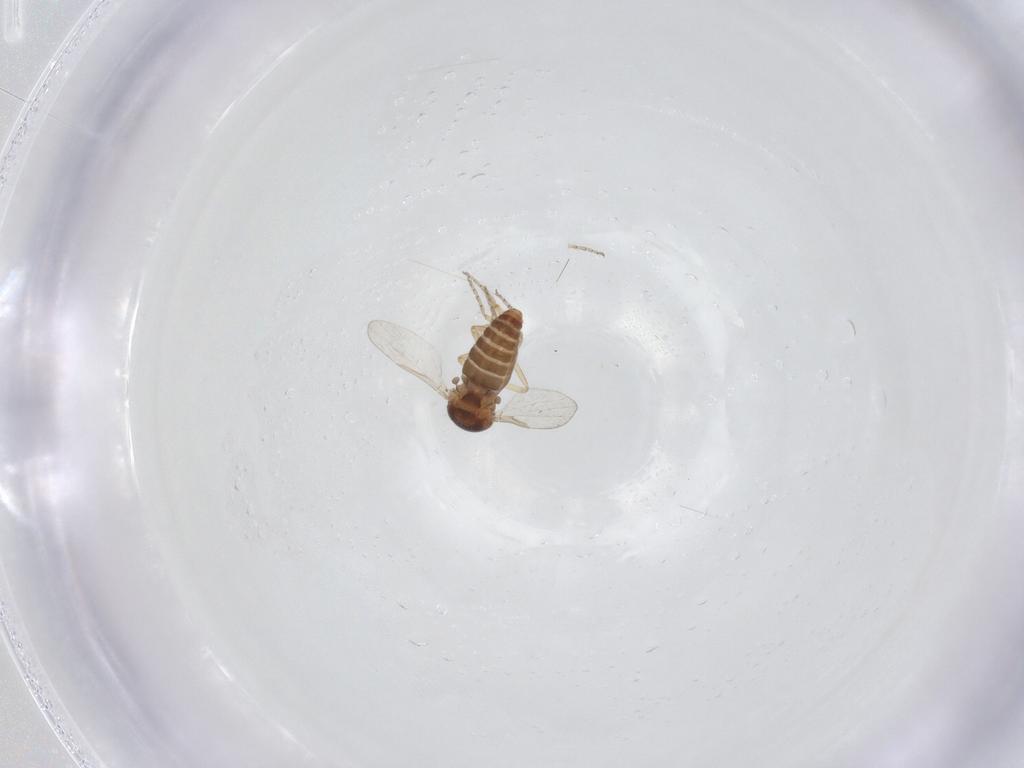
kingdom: Animalia
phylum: Arthropoda
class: Insecta
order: Diptera
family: Ceratopogonidae
